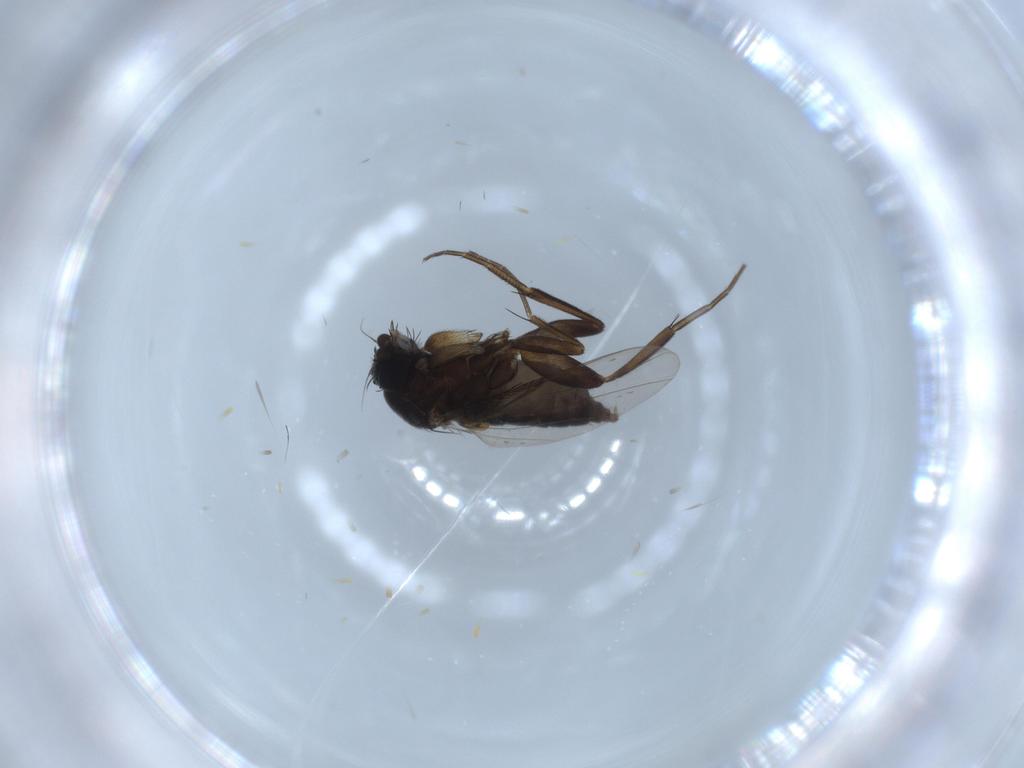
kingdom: Animalia
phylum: Arthropoda
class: Insecta
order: Diptera
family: Phoridae
